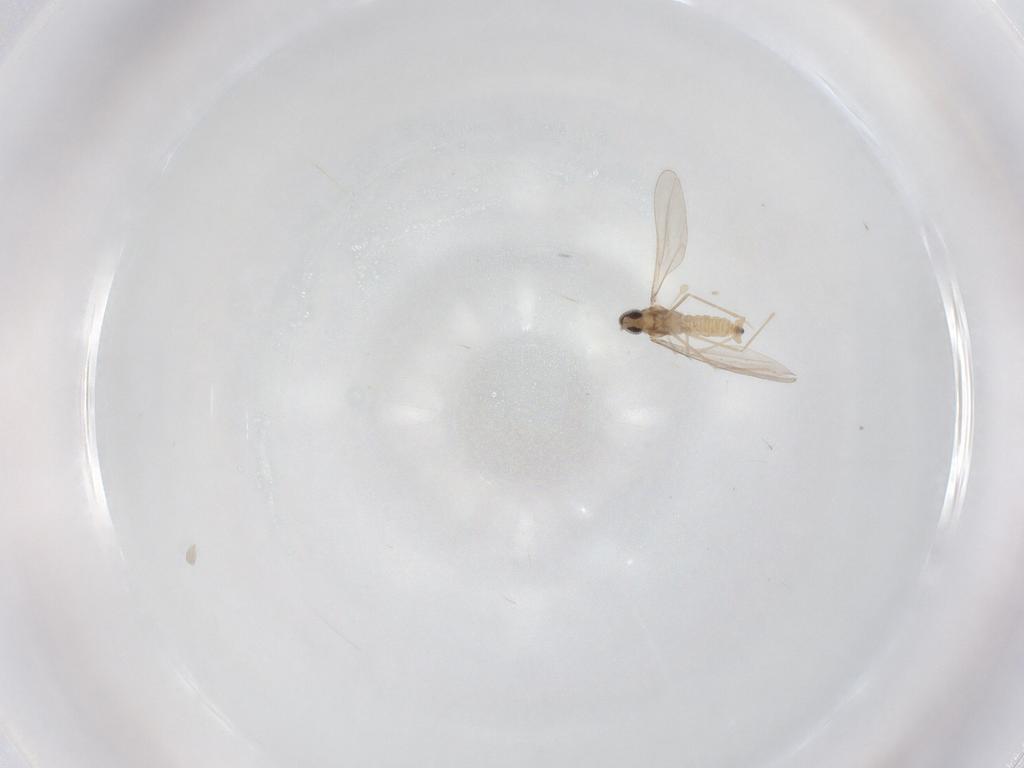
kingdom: Animalia
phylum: Arthropoda
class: Insecta
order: Diptera
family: Cecidomyiidae
